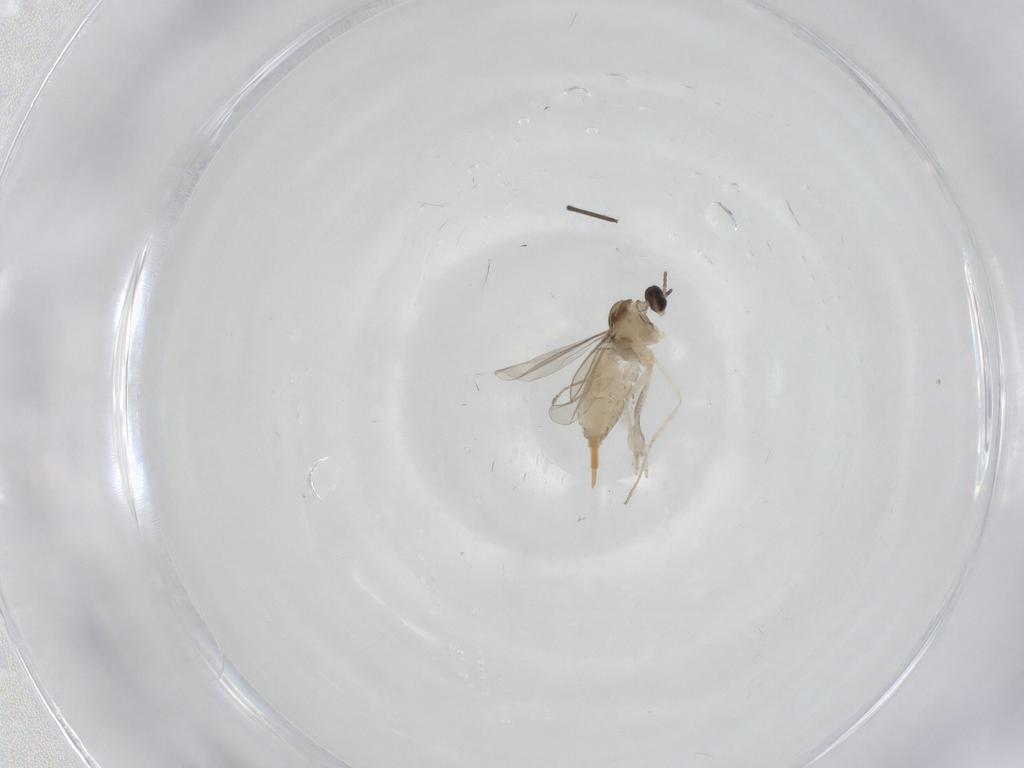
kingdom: Animalia
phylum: Arthropoda
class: Insecta
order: Diptera
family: Cecidomyiidae
